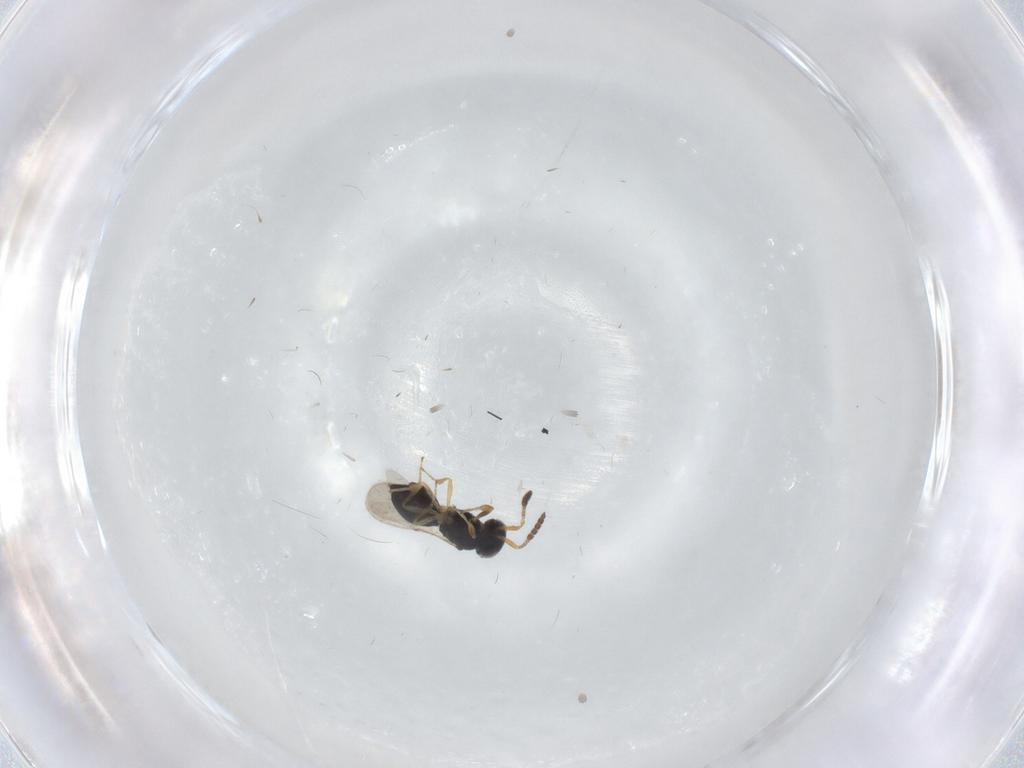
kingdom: Animalia
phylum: Arthropoda
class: Insecta
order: Hymenoptera
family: Scelionidae
